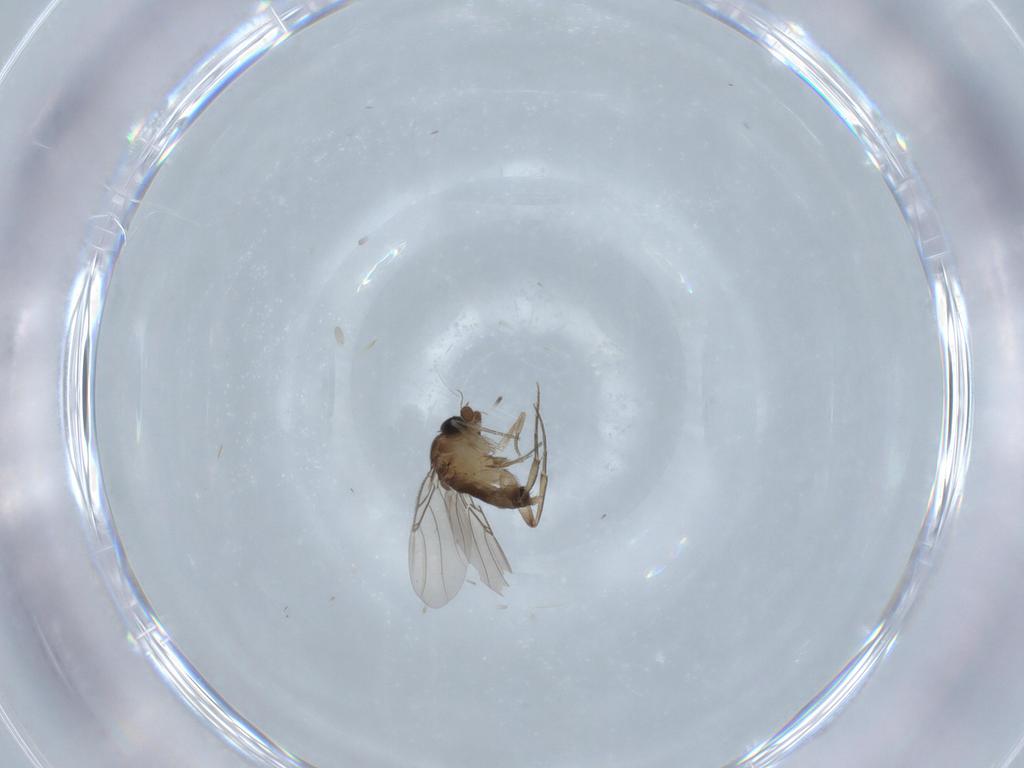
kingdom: Animalia
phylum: Arthropoda
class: Insecta
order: Diptera
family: Phoridae
